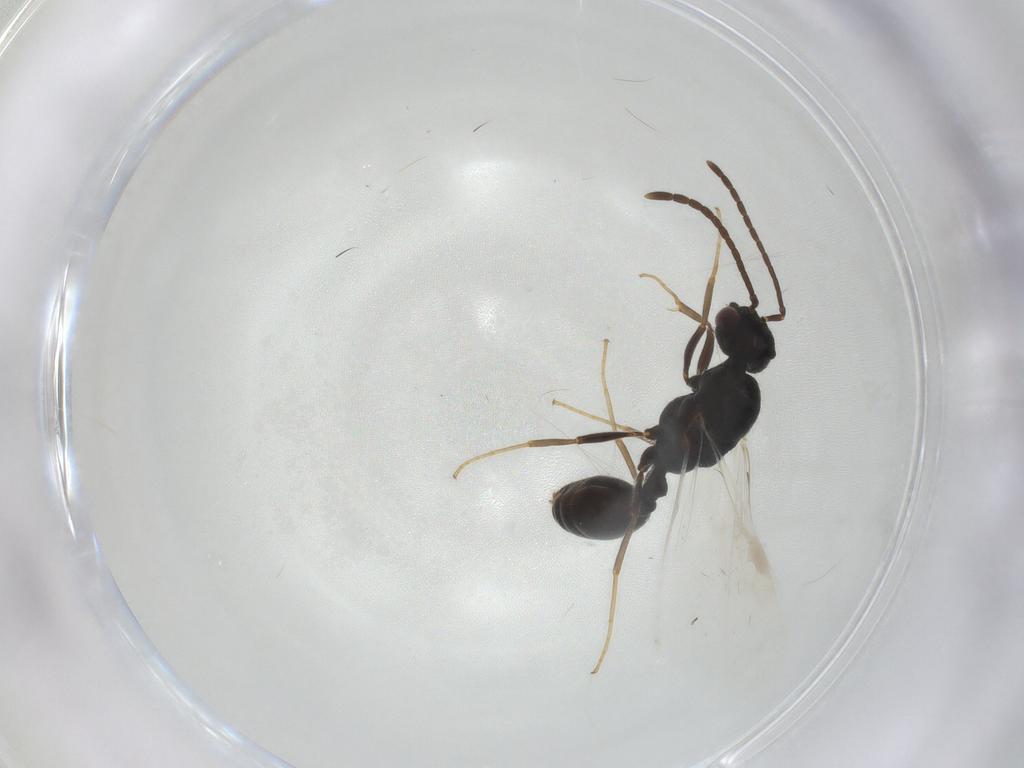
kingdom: Animalia
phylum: Arthropoda
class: Insecta
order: Hymenoptera
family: Formicidae
